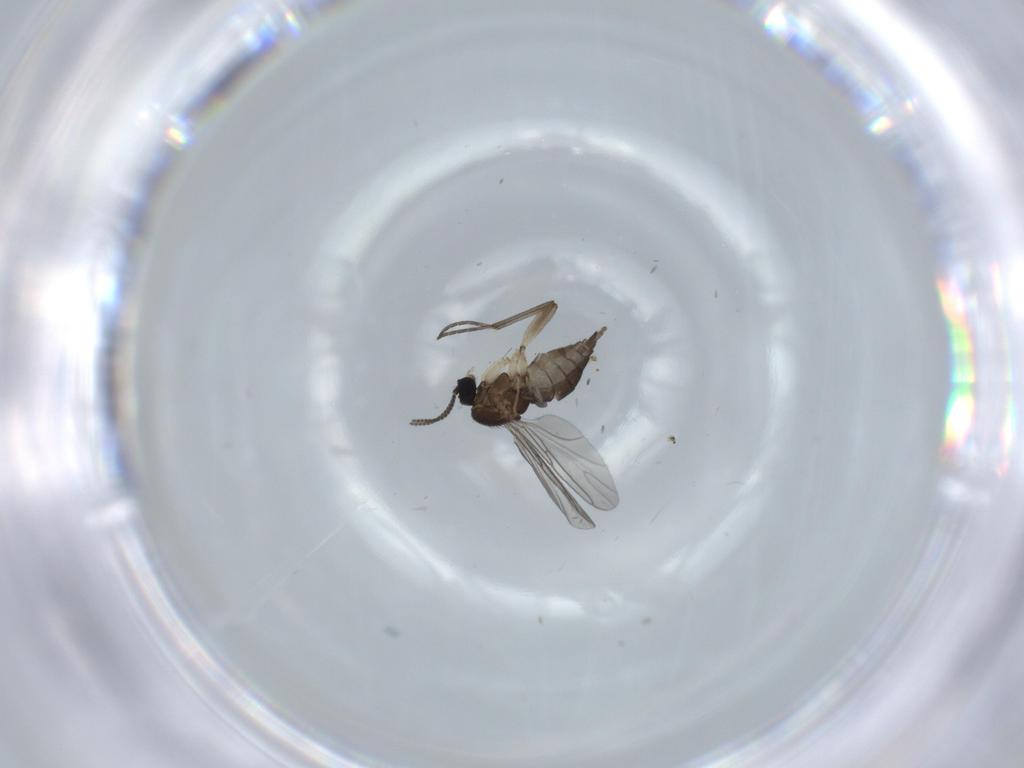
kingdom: Animalia
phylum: Arthropoda
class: Insecta
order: Diptera
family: Sciaridae
